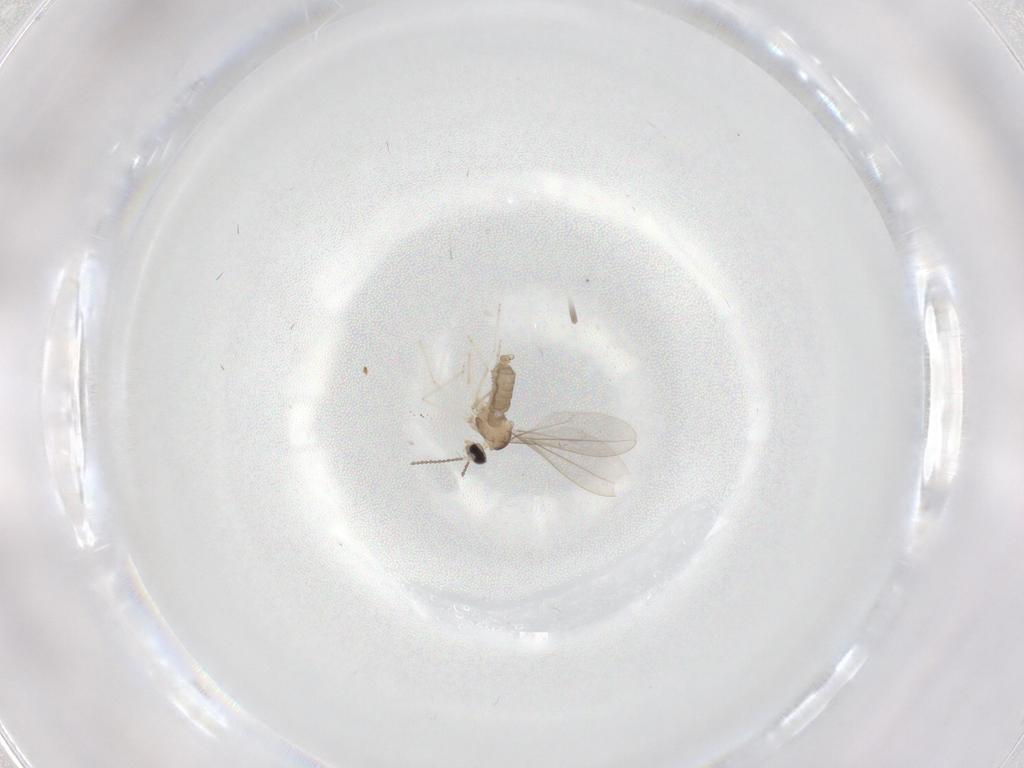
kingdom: Animalia
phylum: Arthropoda
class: Insecta
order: Diptera
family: Cecidomyiidae
